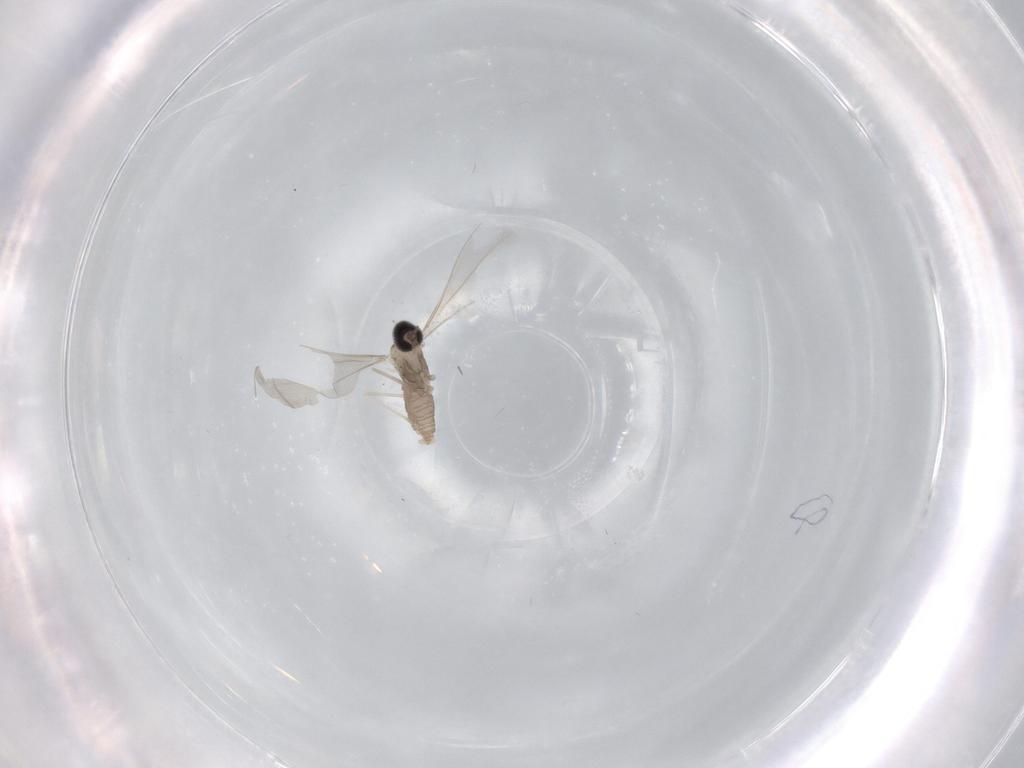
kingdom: Animalia
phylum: Arthropoda
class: Insecta
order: Diptera
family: Cecidomyiidae
